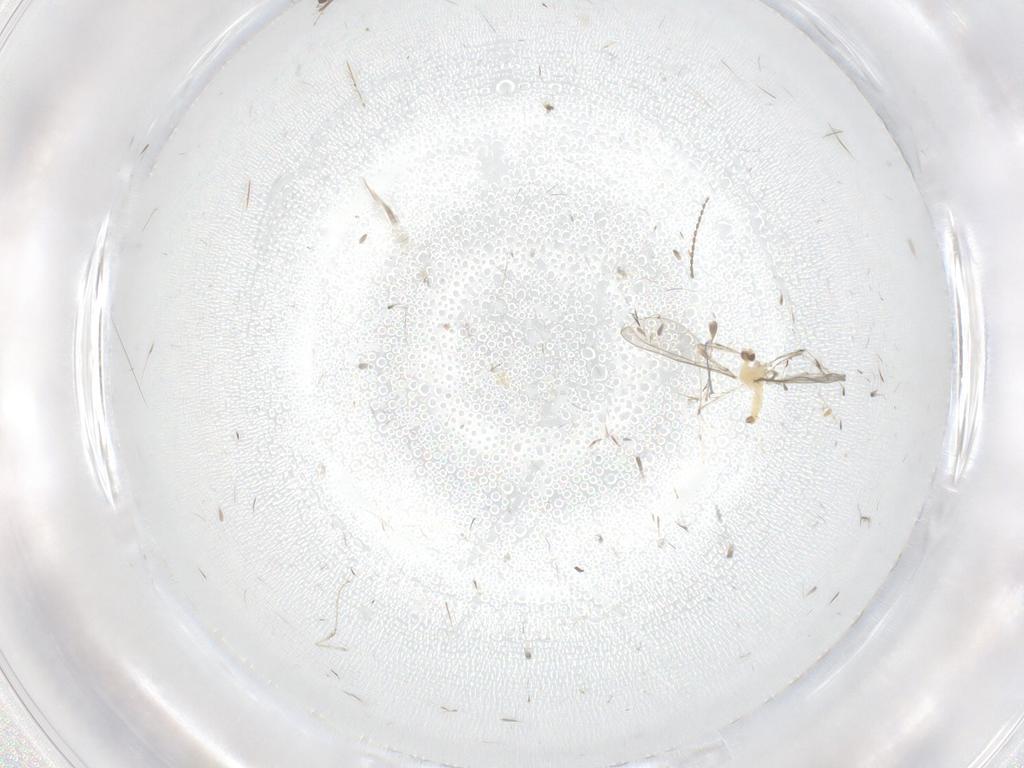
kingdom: Animalia
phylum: Arthropoda
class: Insecta
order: Diptera
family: Cecidomyiidae
